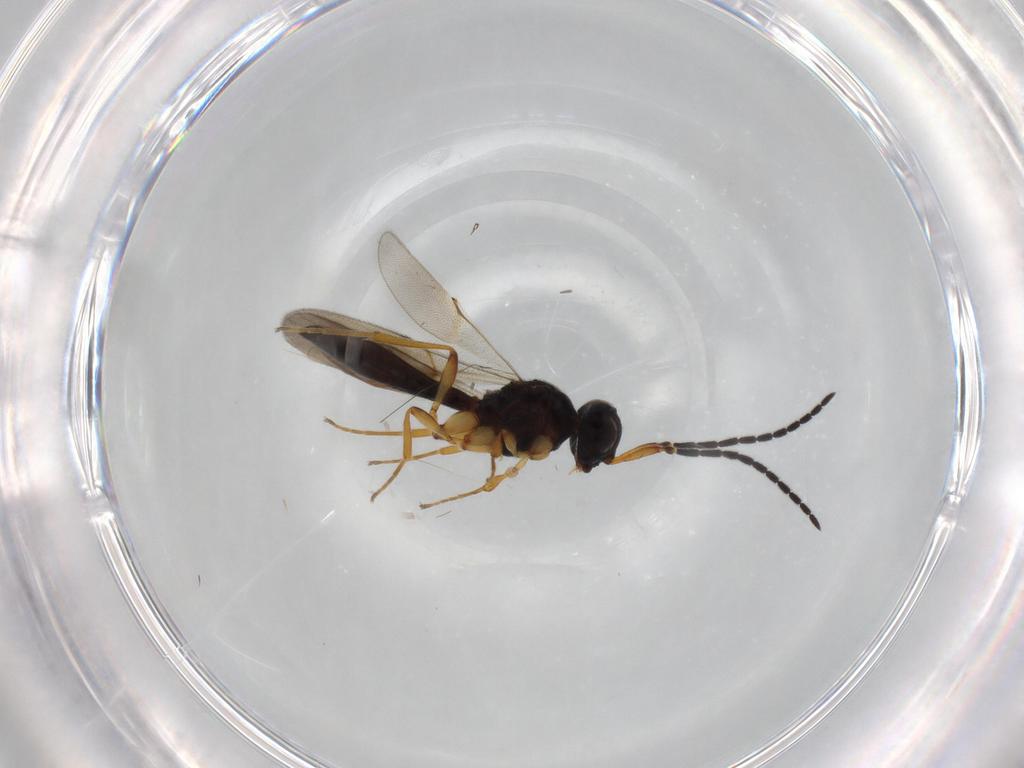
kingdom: Animalia
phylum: Arthropoda
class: Insecta
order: Hymenoptera
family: Scelionidae
